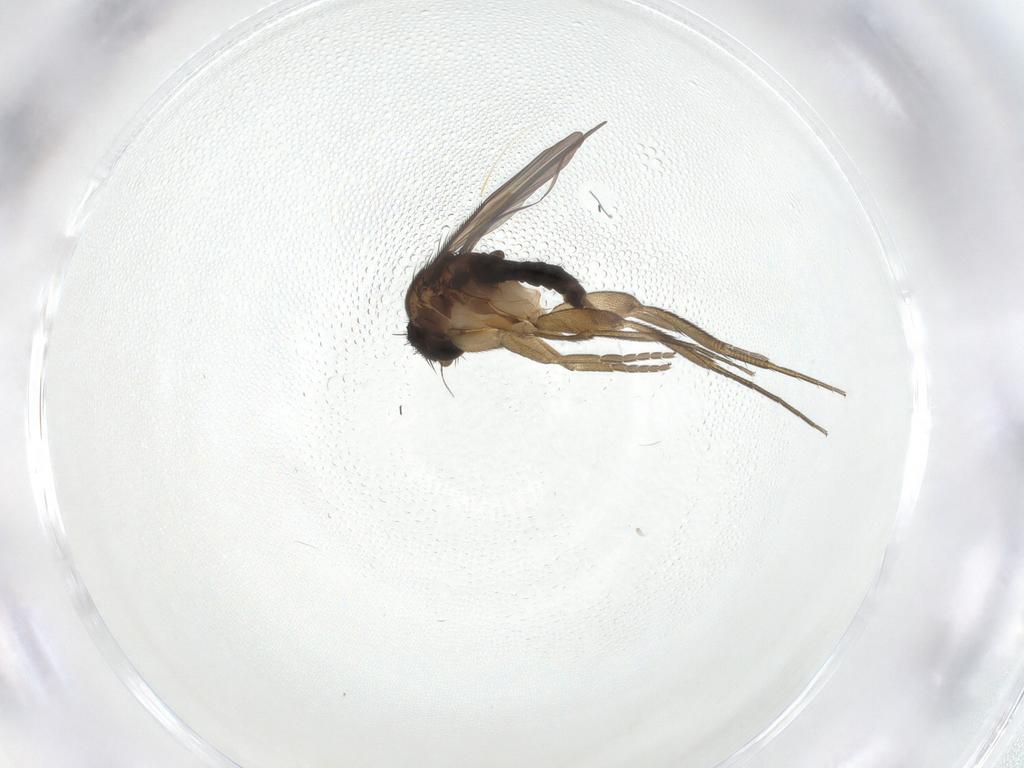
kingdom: Animalia
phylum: Arthropoda
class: Insecta
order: Diptera
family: Phoridae
